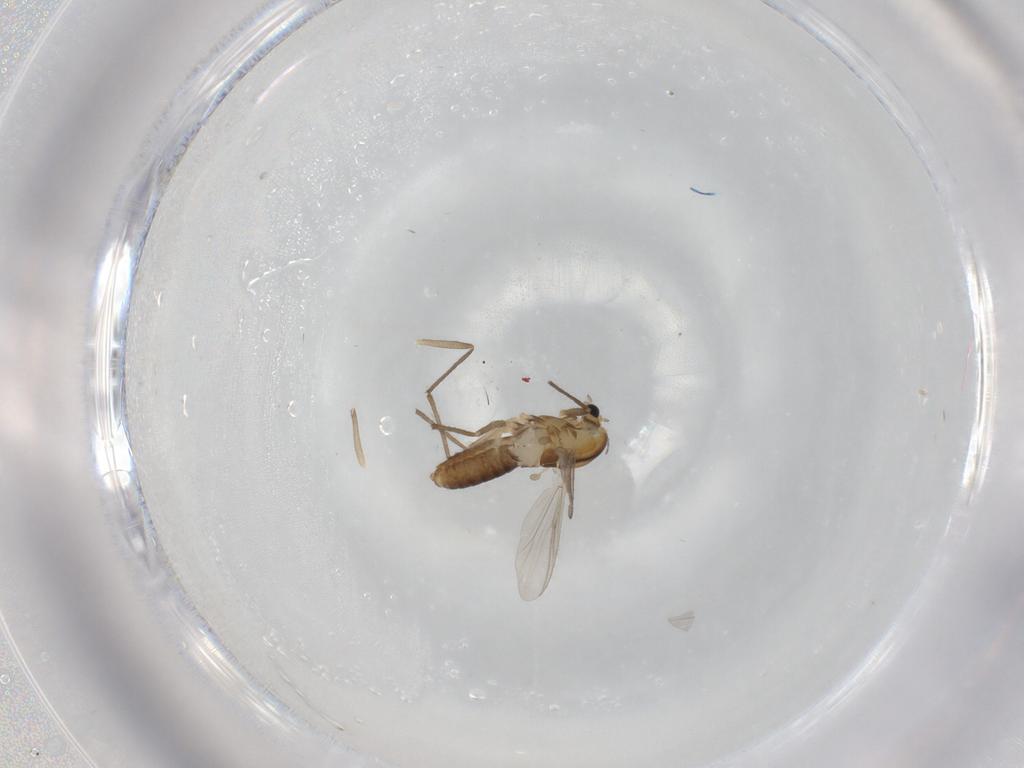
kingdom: Animalia
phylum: Arthropoda
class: Insecta
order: Diptera
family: Chironomidae
